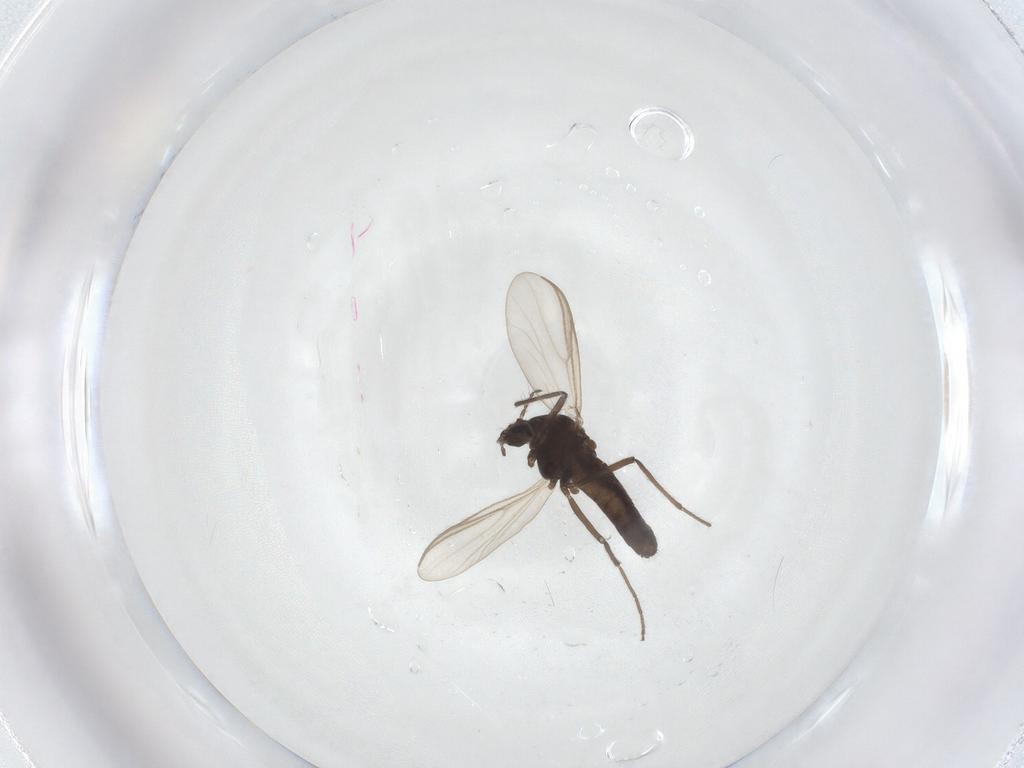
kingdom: Animalia
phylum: Arthropoda
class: Insecta
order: Diptera
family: Chironomidae
